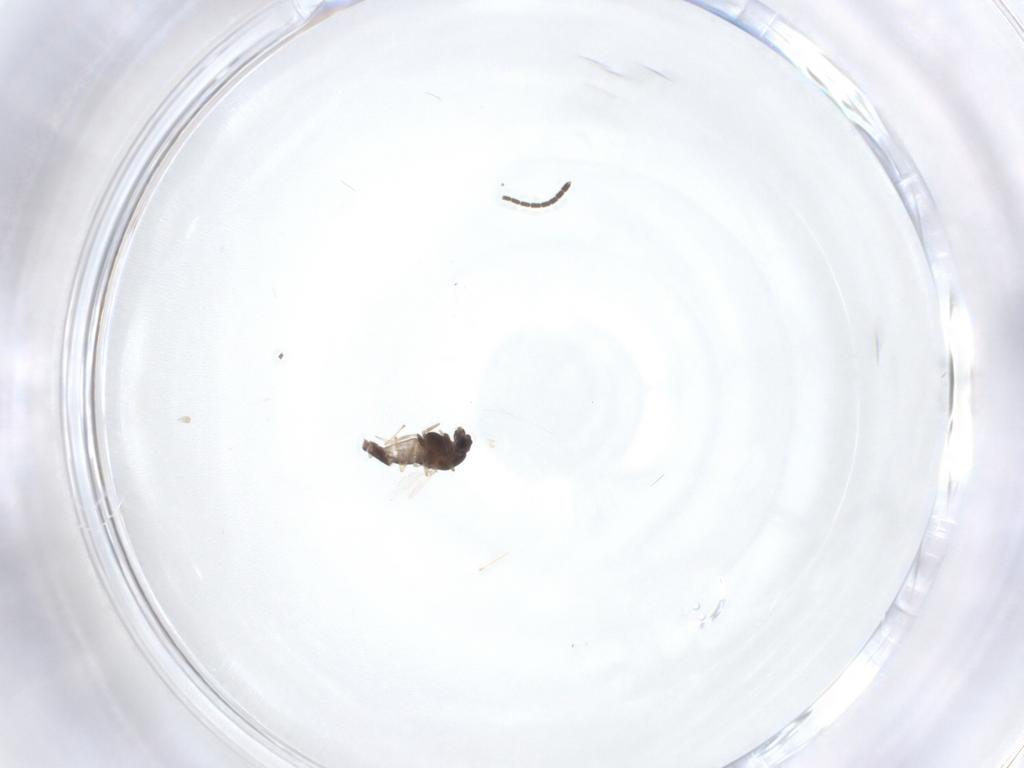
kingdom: Animalia
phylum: Arthropoda
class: Insecta
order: Diptera
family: Chironomidae
